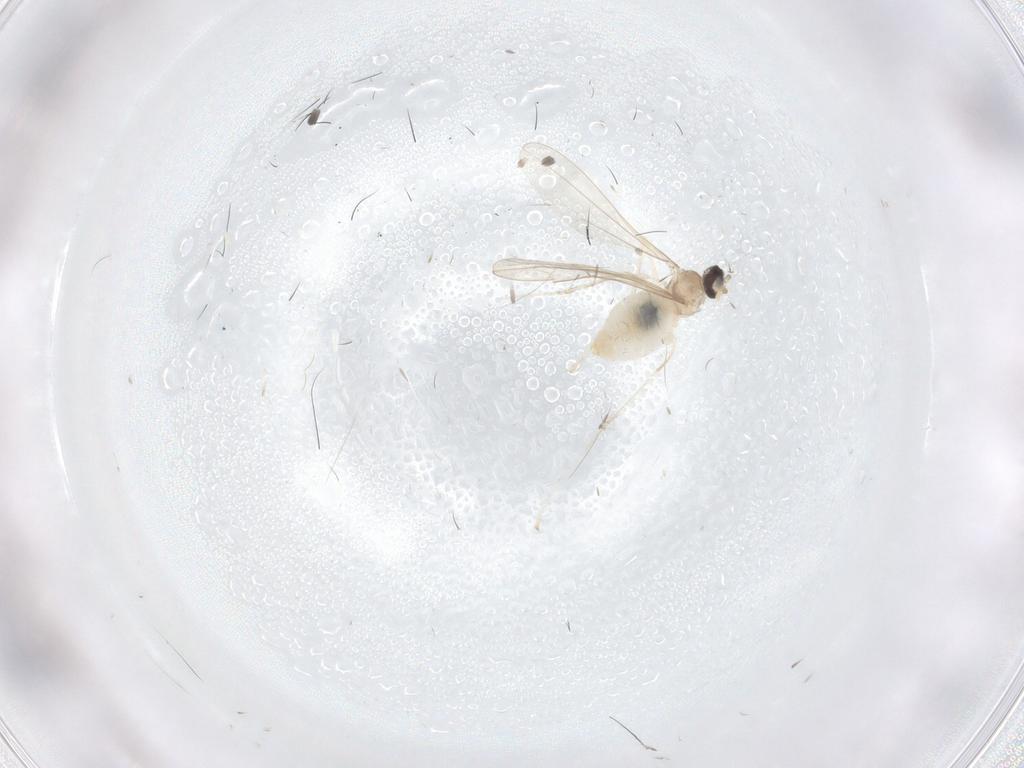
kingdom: Animalia
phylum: Arthropoda
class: Insecta
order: Diptera
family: Cecidomyiidae
